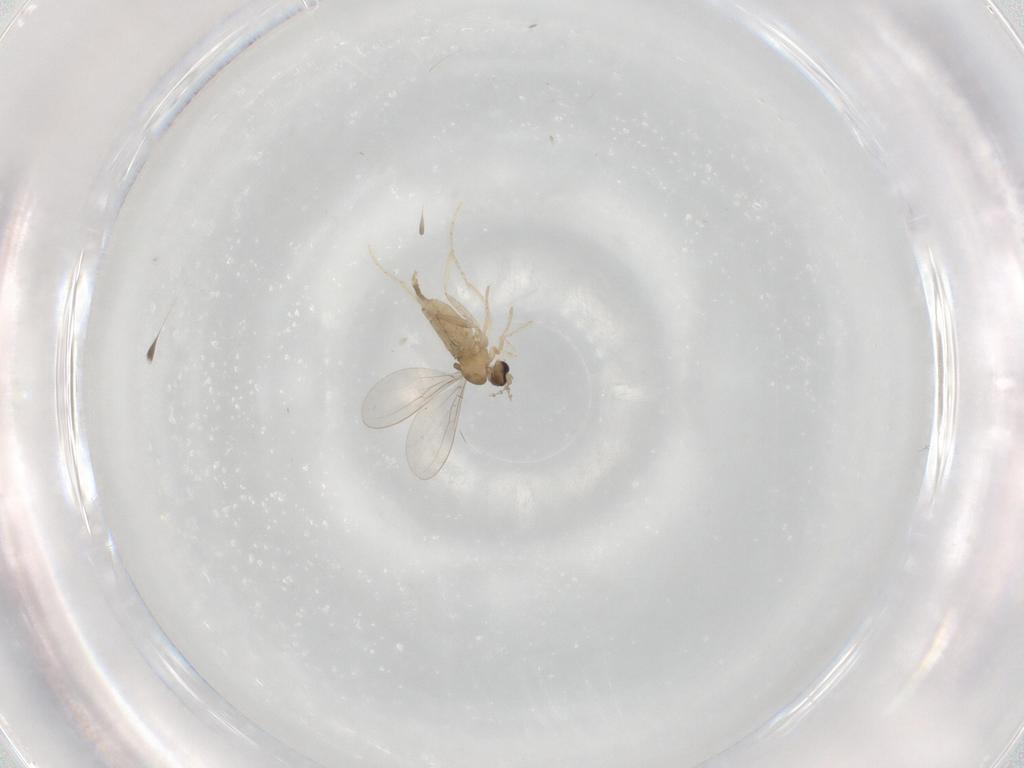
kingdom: Animalia
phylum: Arthropoda
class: Insecta
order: Diptera
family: Cecidomyiidae
